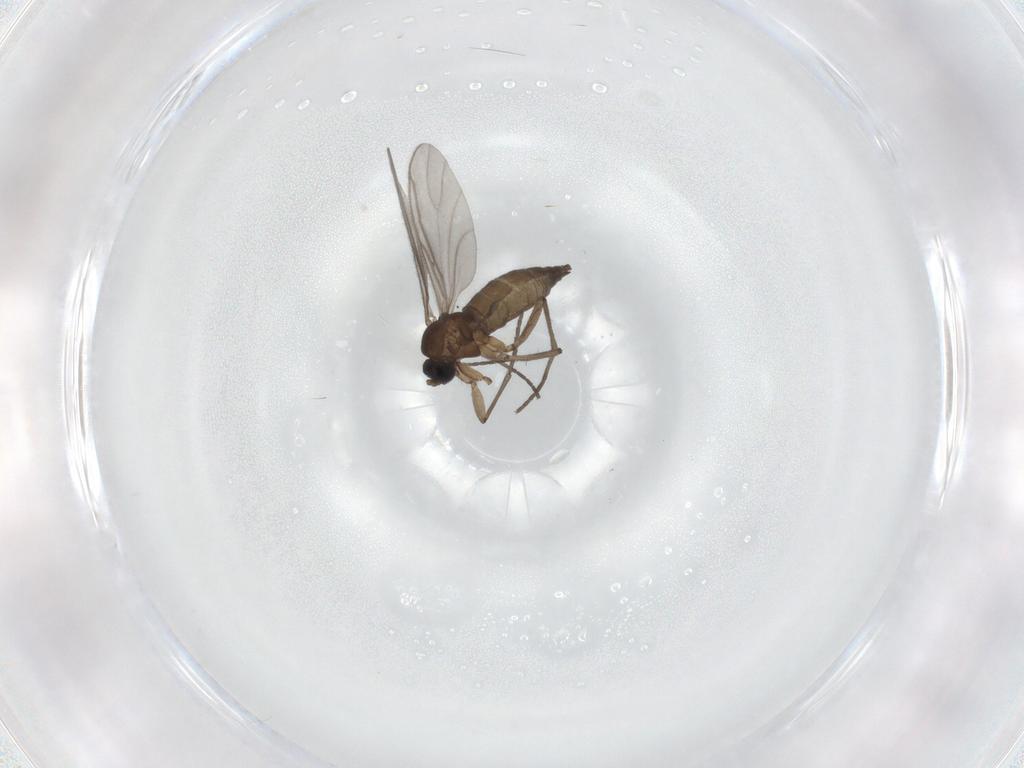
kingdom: Animalia
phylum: Arthropoda
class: Insecta
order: Diptera
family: Sciaridae
